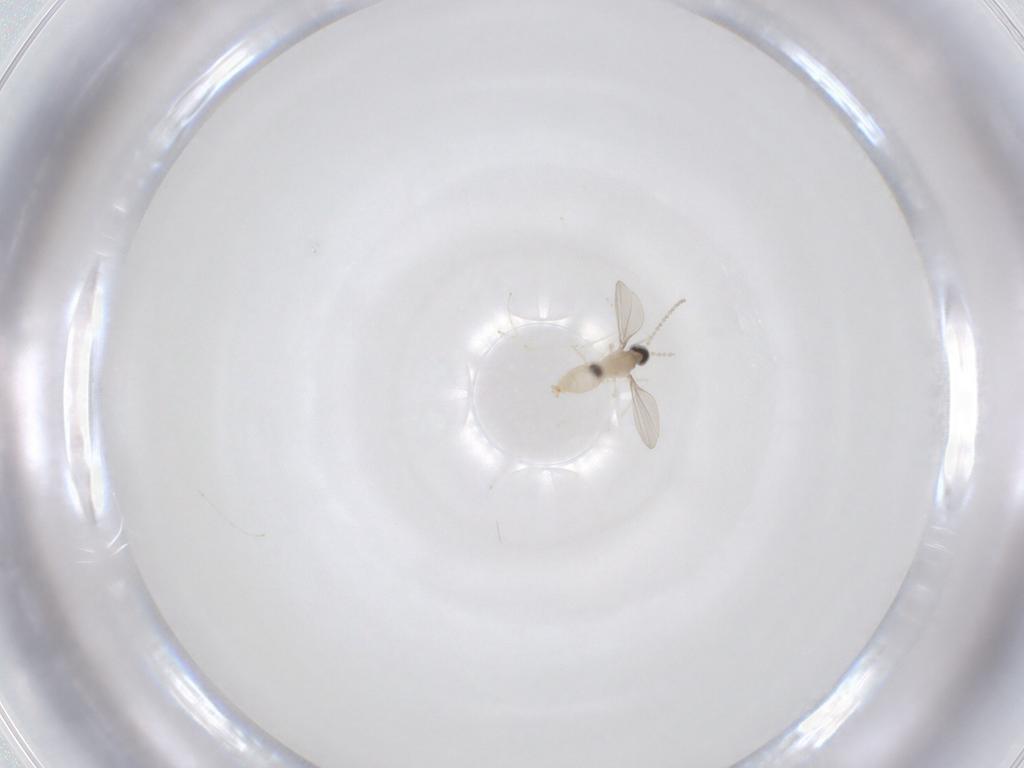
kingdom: Animalia
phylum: Arthropoda
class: Insecta
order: Diptera
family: Cecidomyiidae
